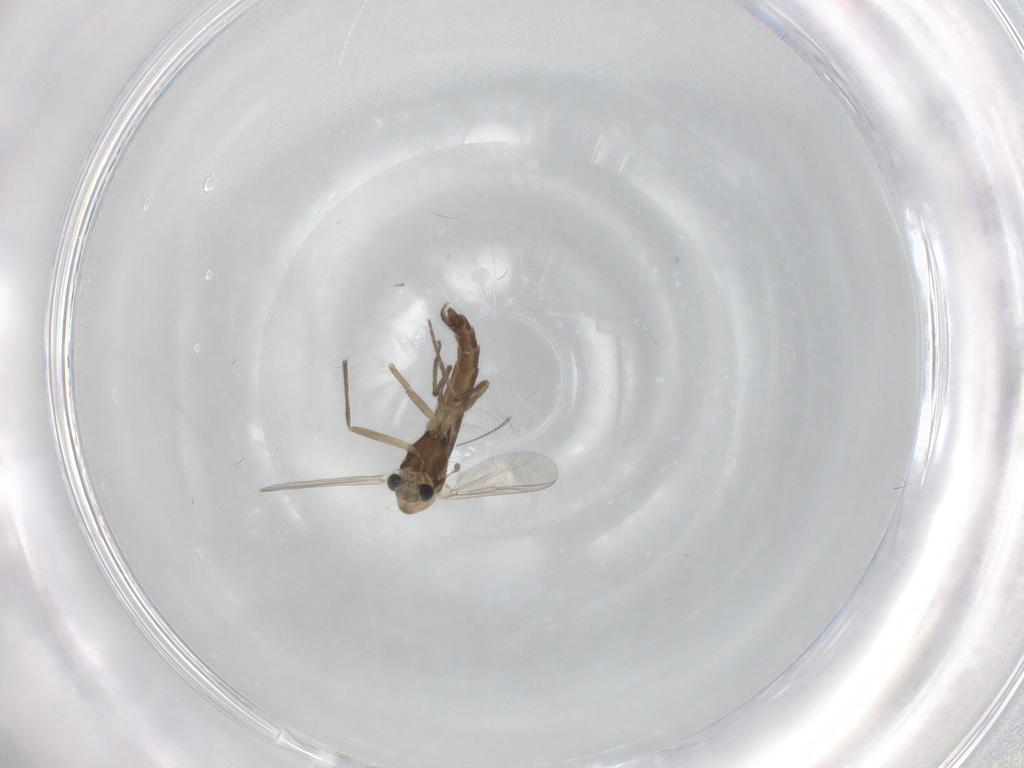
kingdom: Animalia
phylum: Arthropoda
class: Insecta
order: Diptera
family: Chironomidae
